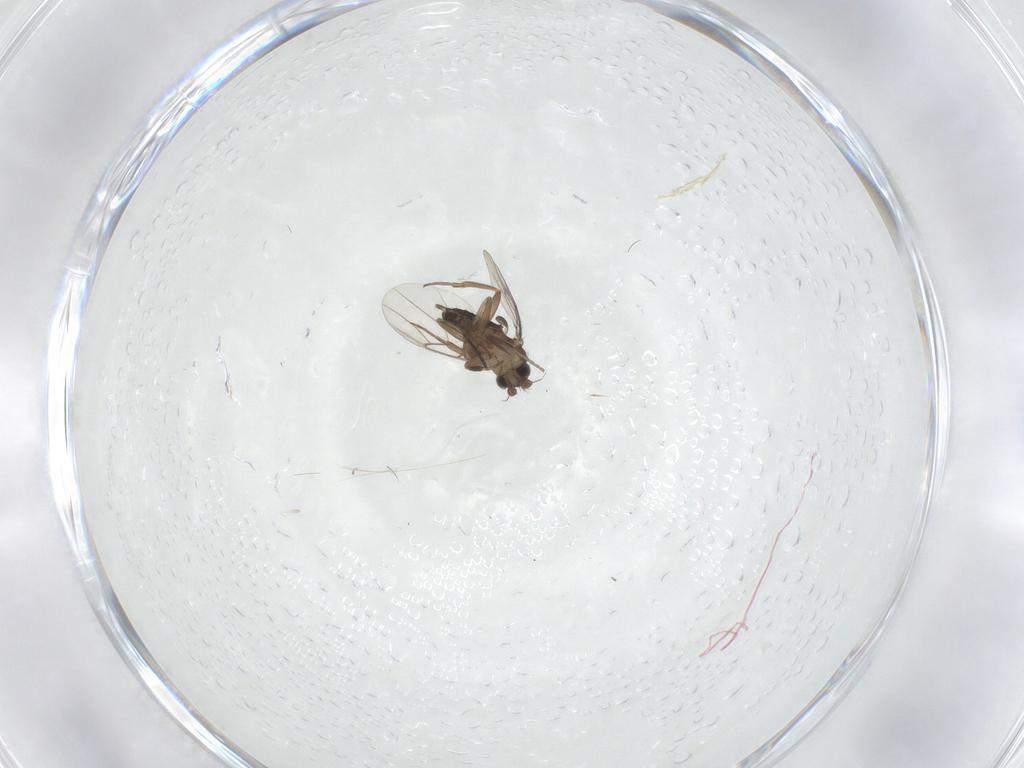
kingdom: Animalia
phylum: Arthropoda
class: Insecta
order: Diptera
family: Sciaridae
